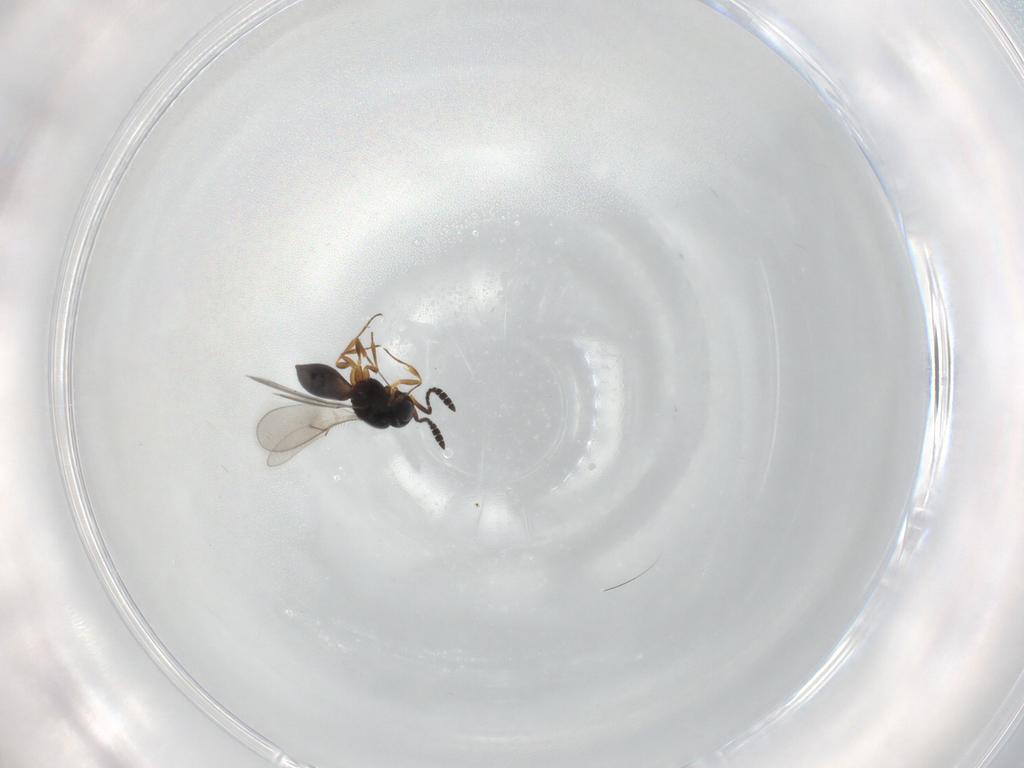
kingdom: Animalia
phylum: Arthropoda
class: Insecta
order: Hymenoptera
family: Scelionidae
